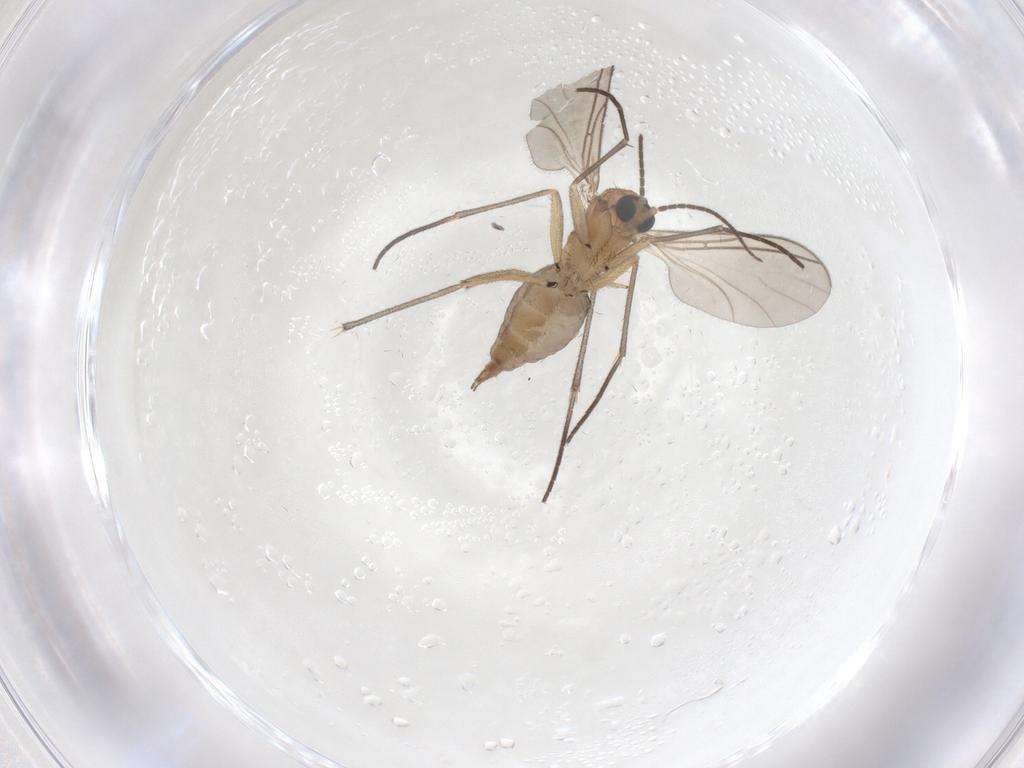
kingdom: Animalia
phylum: Arthropoda
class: Insecta
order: Diptera
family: Sciaridae
